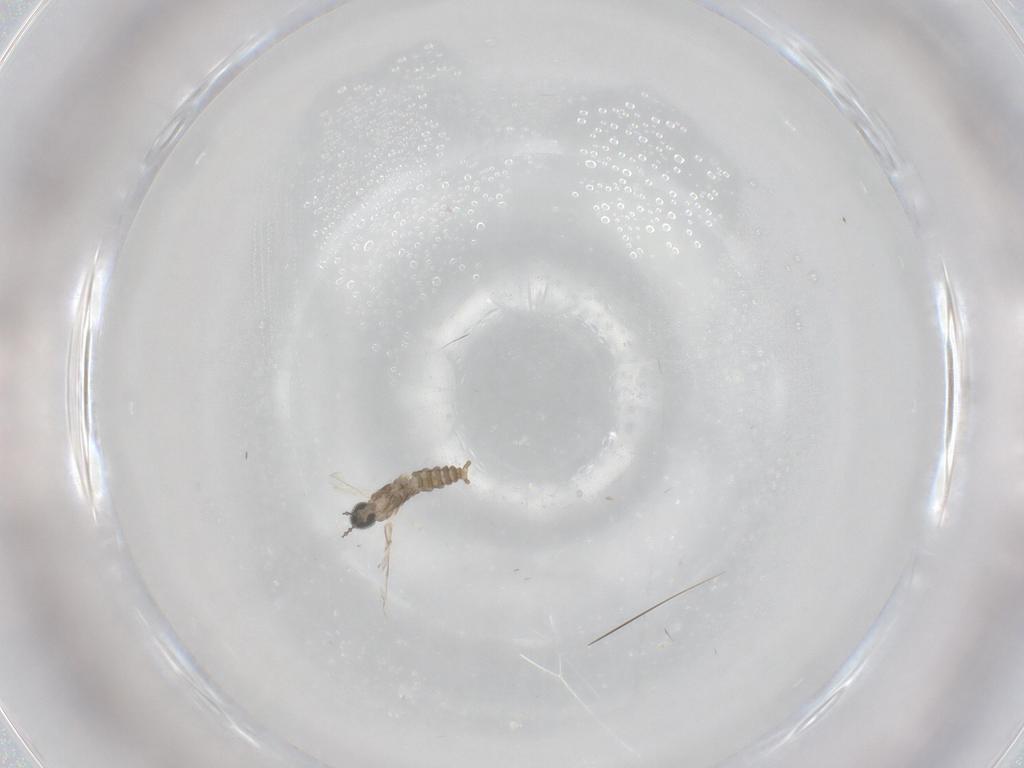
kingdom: Animalia
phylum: Arthropoda
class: Insecta
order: Diptera
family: Cecidomyiidae
